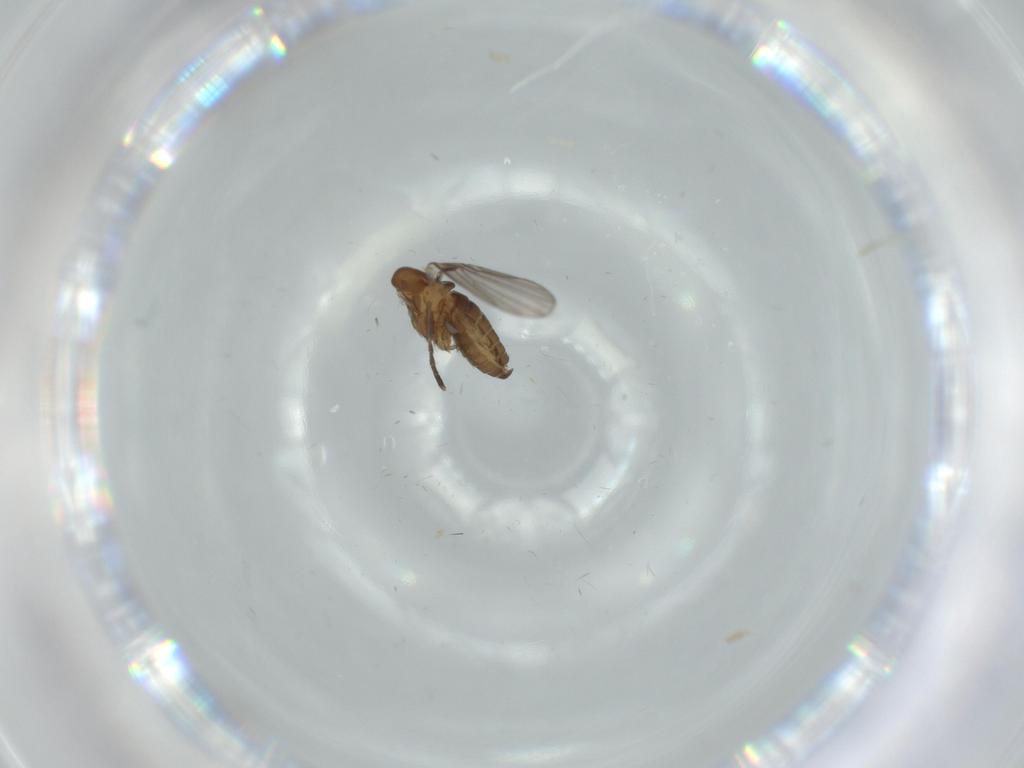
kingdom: Animalia
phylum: Arthropoda
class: Insecta
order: Diptera
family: Psychodidae
